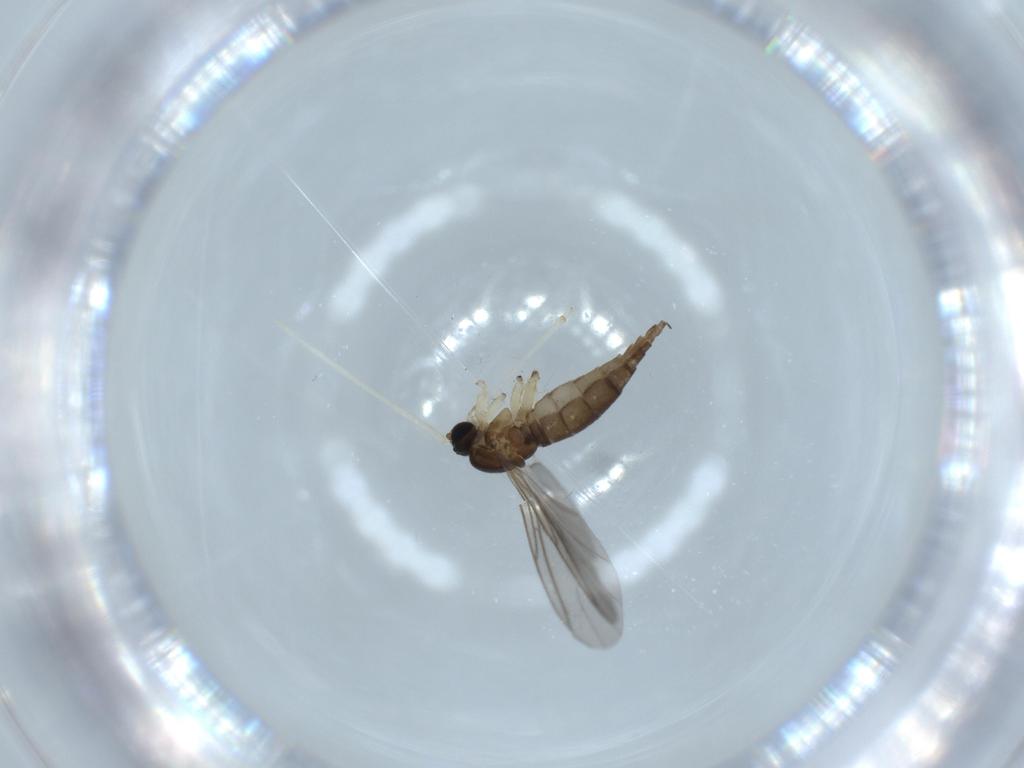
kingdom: Animalia
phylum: Arthropoda
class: Insecta
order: Diptera
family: Sciaridae
